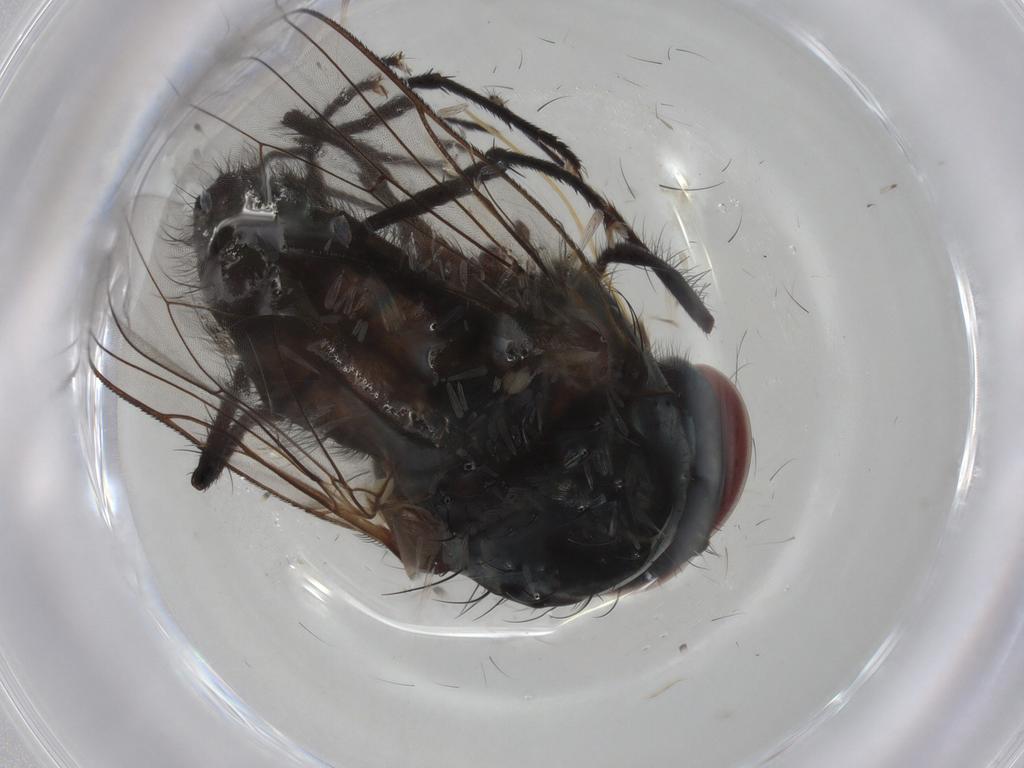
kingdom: Animalia
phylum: Arthropoda
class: Insecta
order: Diptera
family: Anthomyiidae
